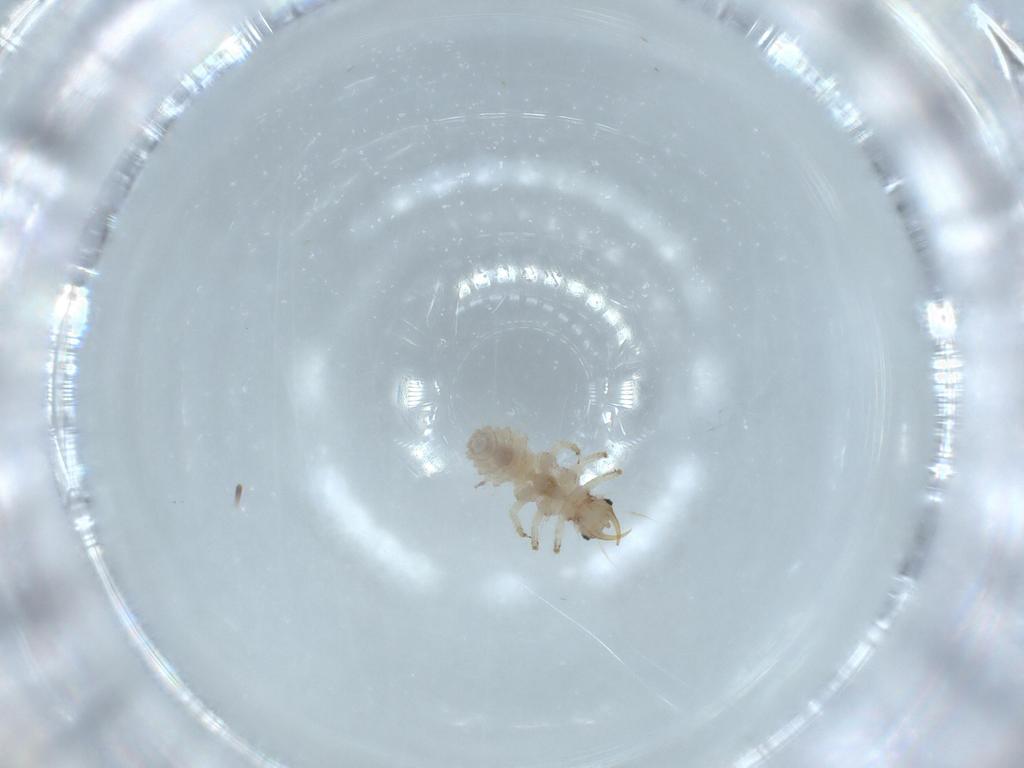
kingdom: Animalia
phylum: Arthropoda
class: Insecta
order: Neuroptera
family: Chrysopidae
